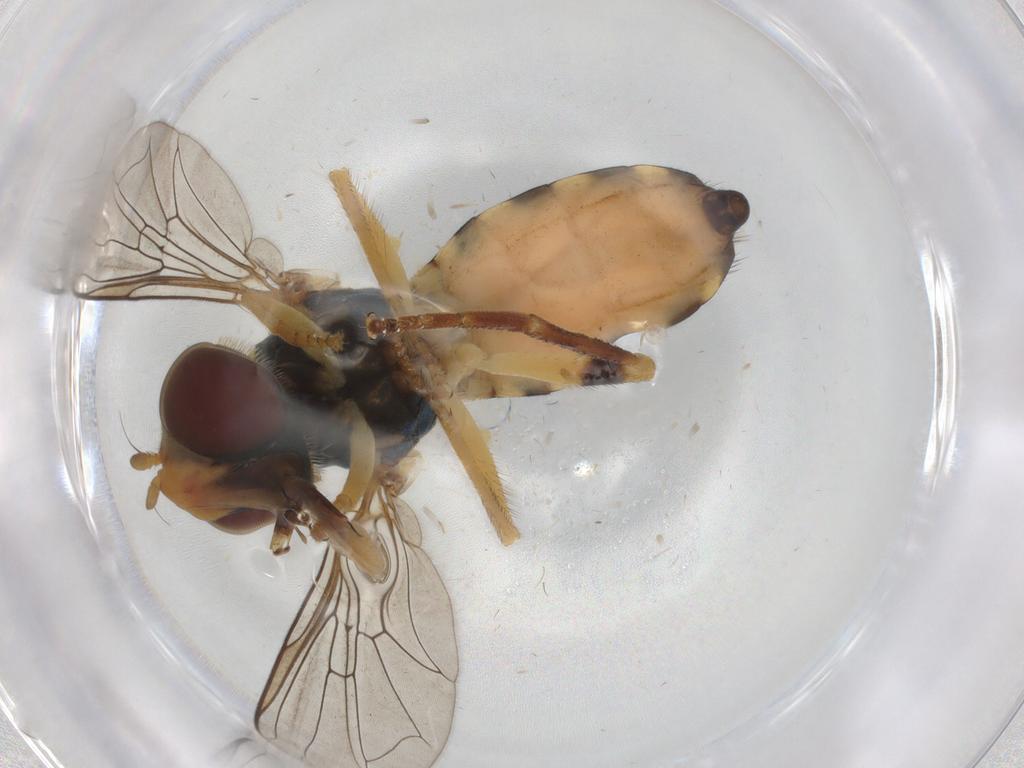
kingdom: Animalia
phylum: Arthropoda
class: Insecta
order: Diptera
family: Syrphidae
